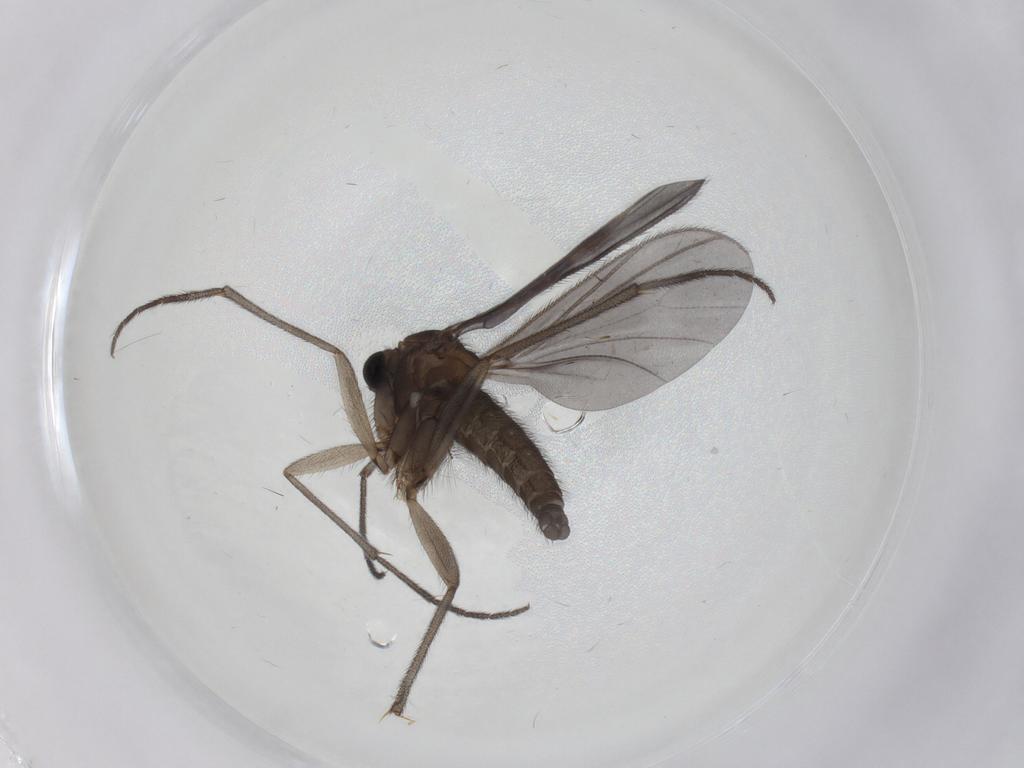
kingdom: Animalia
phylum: Arthropoda
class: Insecta
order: Diptera
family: Sciaridae
